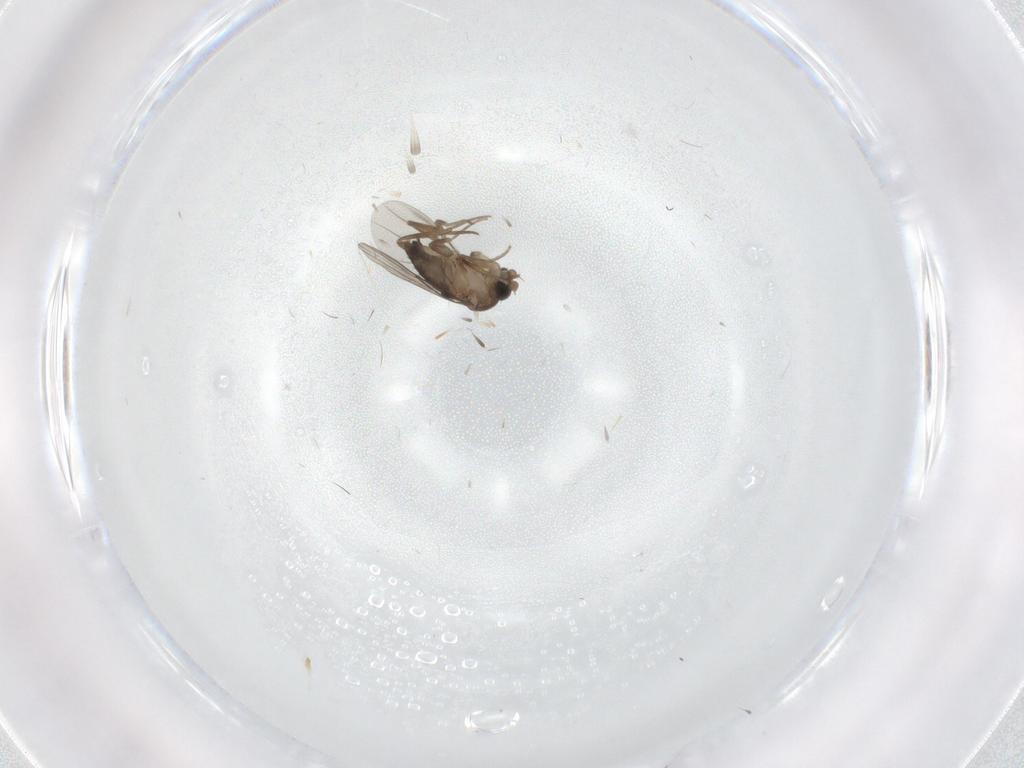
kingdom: Animalia
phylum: Arthropoda
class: Insecta
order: Diptera
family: Phoridae
